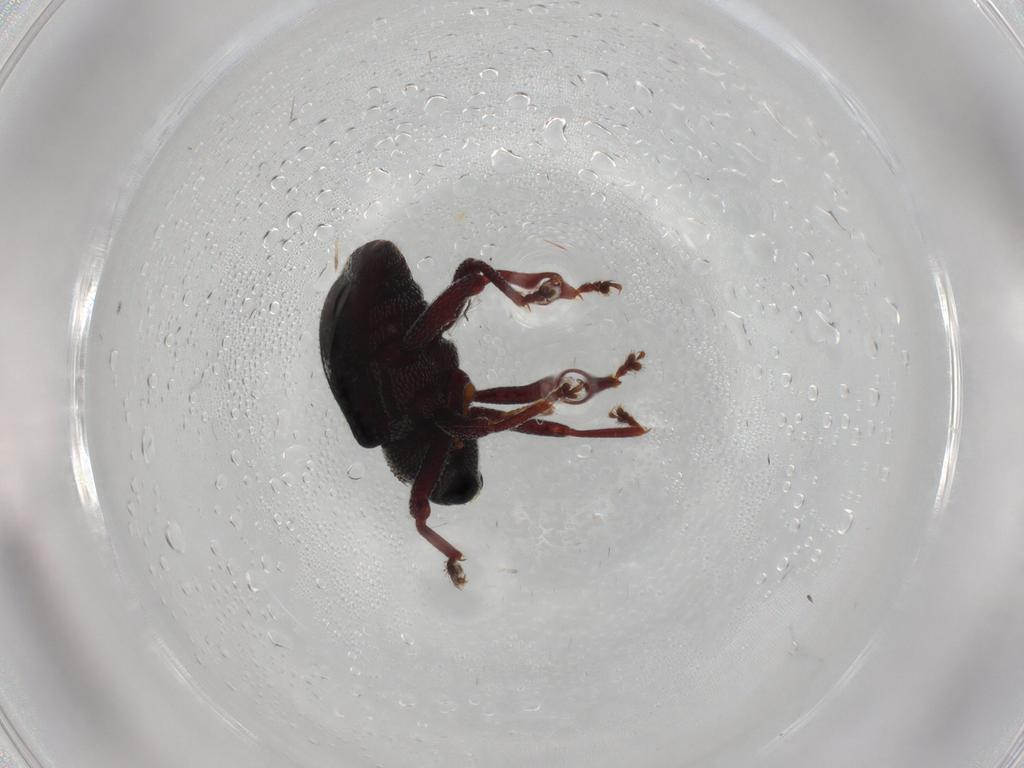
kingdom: Animalia
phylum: Arthropoda
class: Insecta
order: Coleoptera
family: Curculionidae
